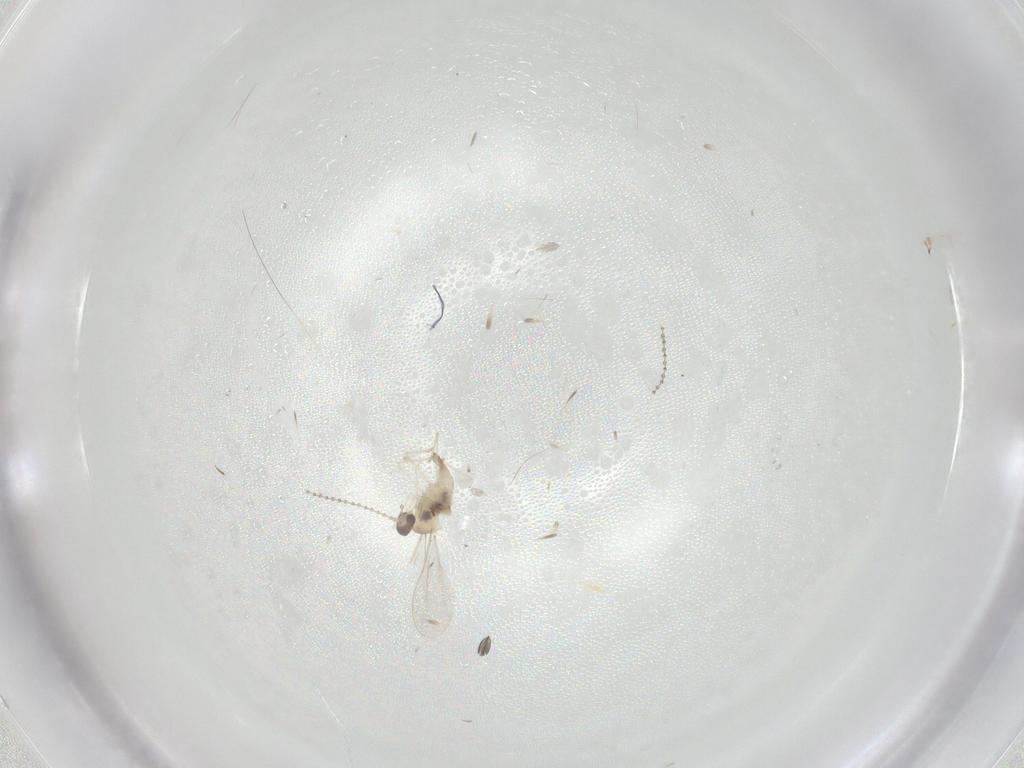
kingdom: Animalia
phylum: Arthropoda
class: Insecta
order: Diptera
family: Cecidomyiidae
